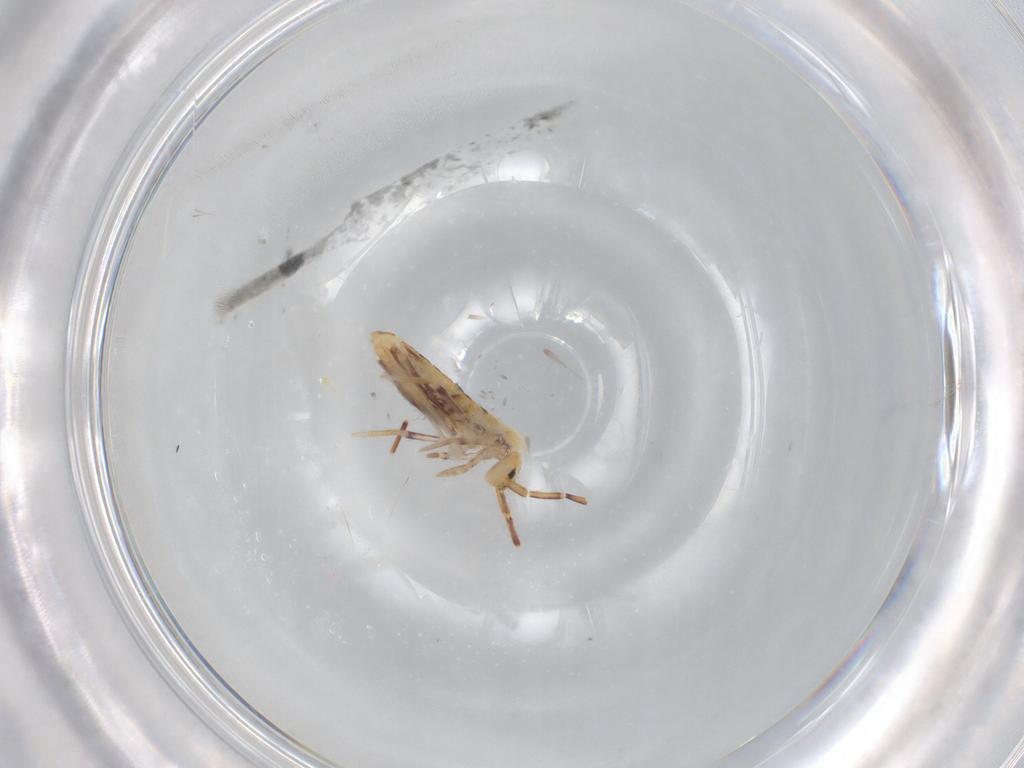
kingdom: Animalia
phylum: Arthropoda
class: Collembola
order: Poduromorpha
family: Hypogastruridae
